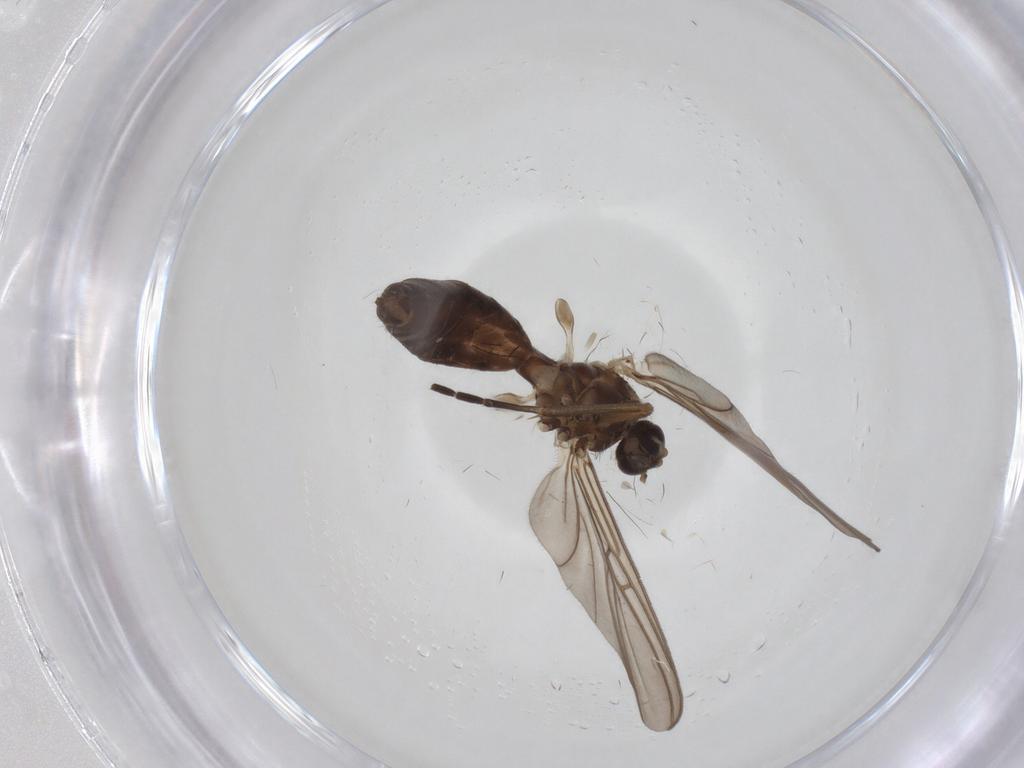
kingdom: Animalia
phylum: Arthropoda
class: Insecta
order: Diptera
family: Mycetophilidae
